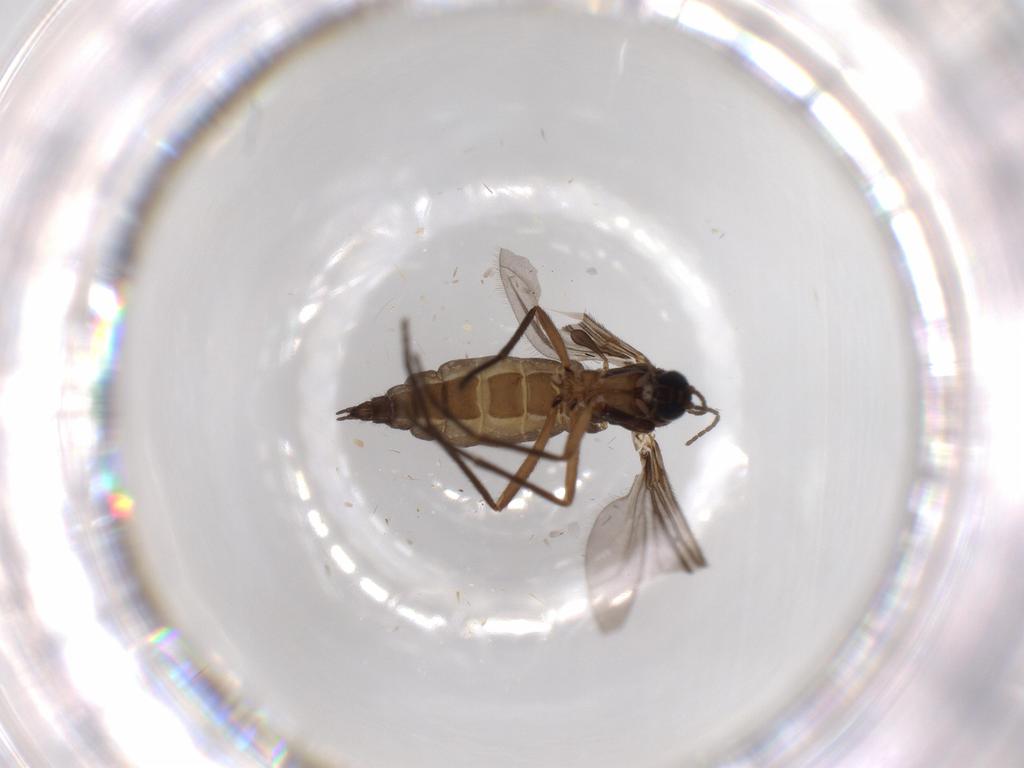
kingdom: Animalia
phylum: Arthropoda
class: Insecta
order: Diptera
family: Sciaridae
